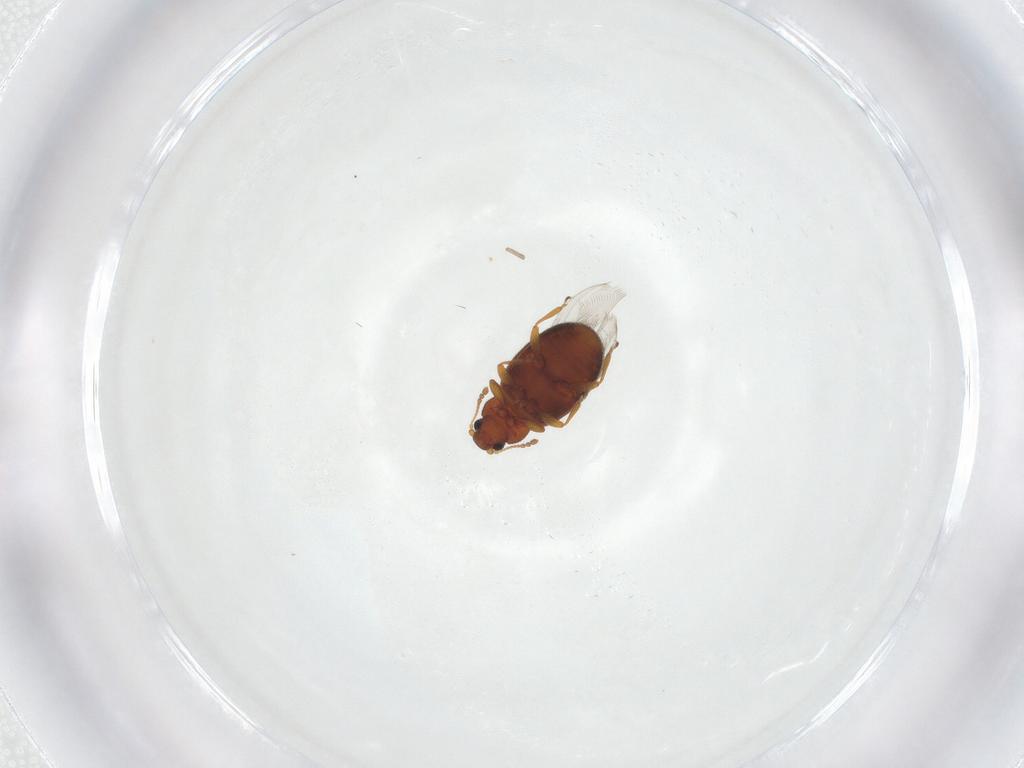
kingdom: Animalia
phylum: Arthropoda
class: Insecta
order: Coleoptera
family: Latridiidae
